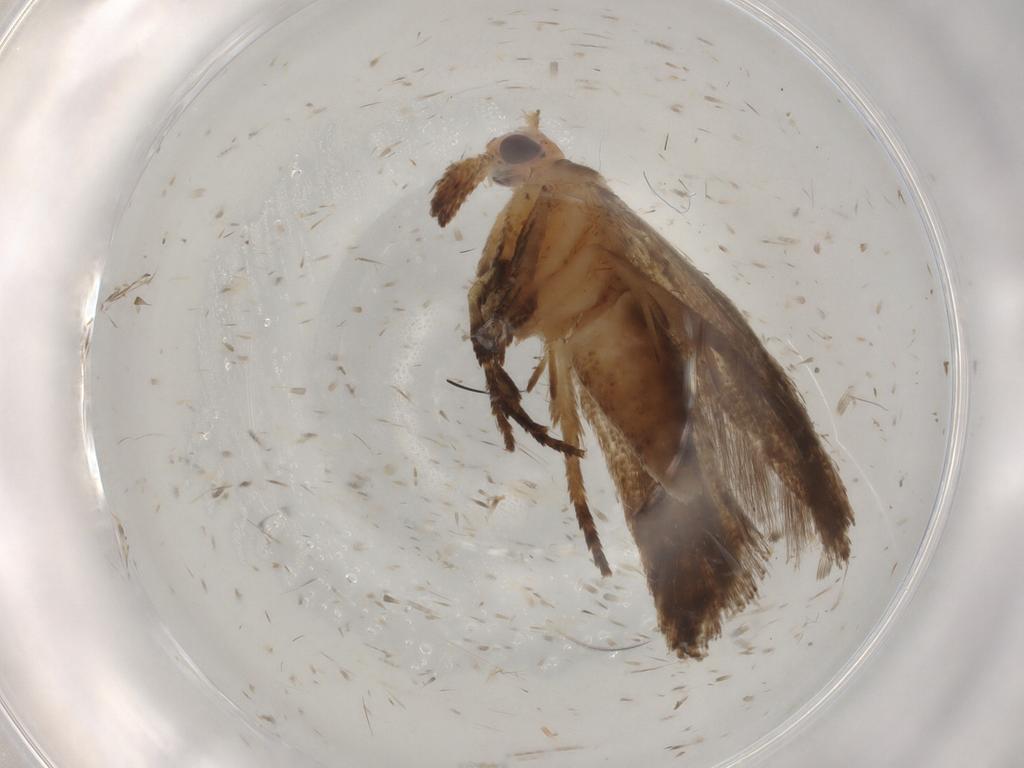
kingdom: Animalia
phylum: Arthropoda
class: Insecta
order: Lepidoptera
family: Ypsolophidae
